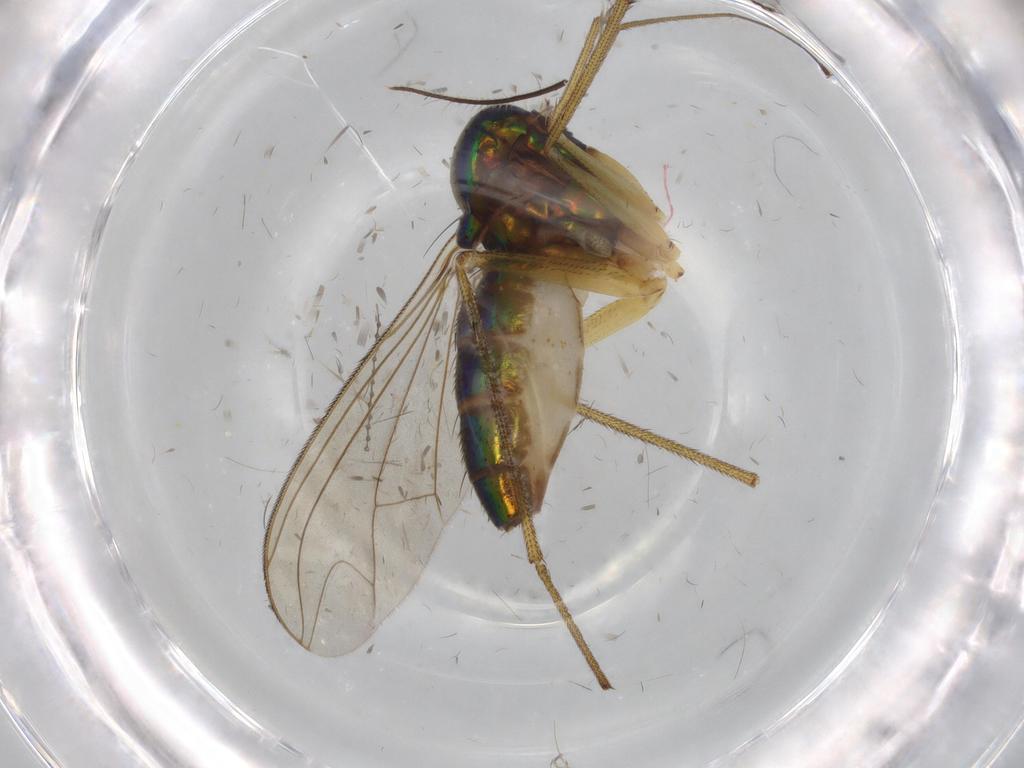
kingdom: Animalia
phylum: Arthropoda
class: Insecta
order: Diptera
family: Dolichopodidae
